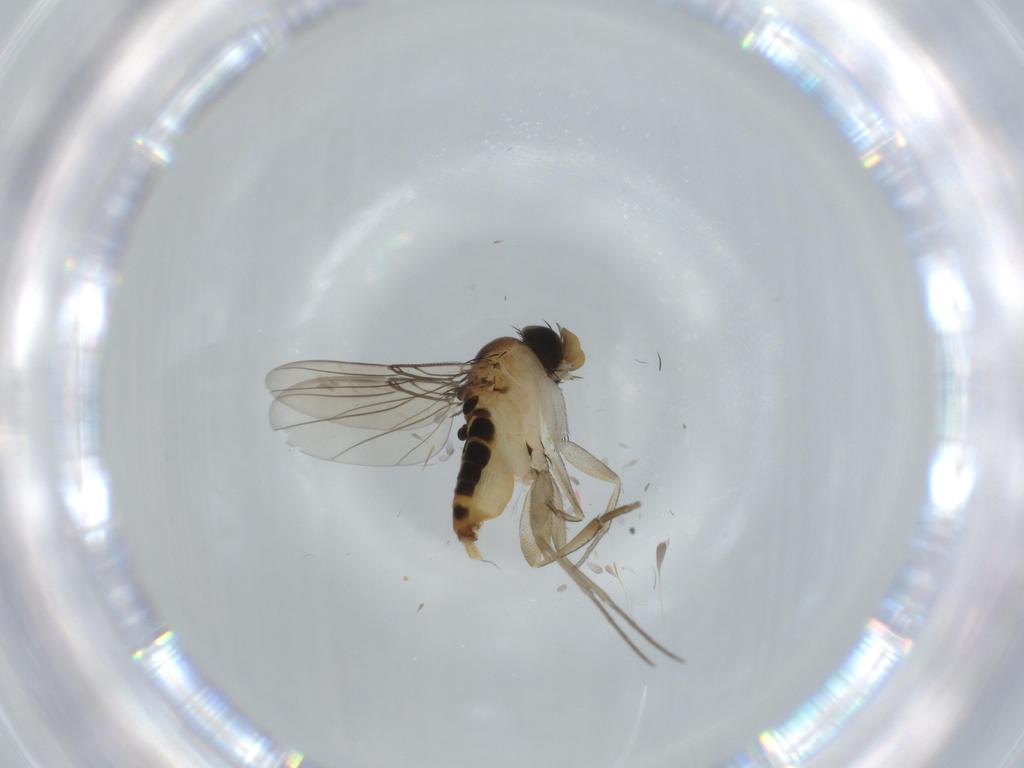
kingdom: Animalia
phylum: Arthropoda
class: Insecta
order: Diptera
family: Phoridae
